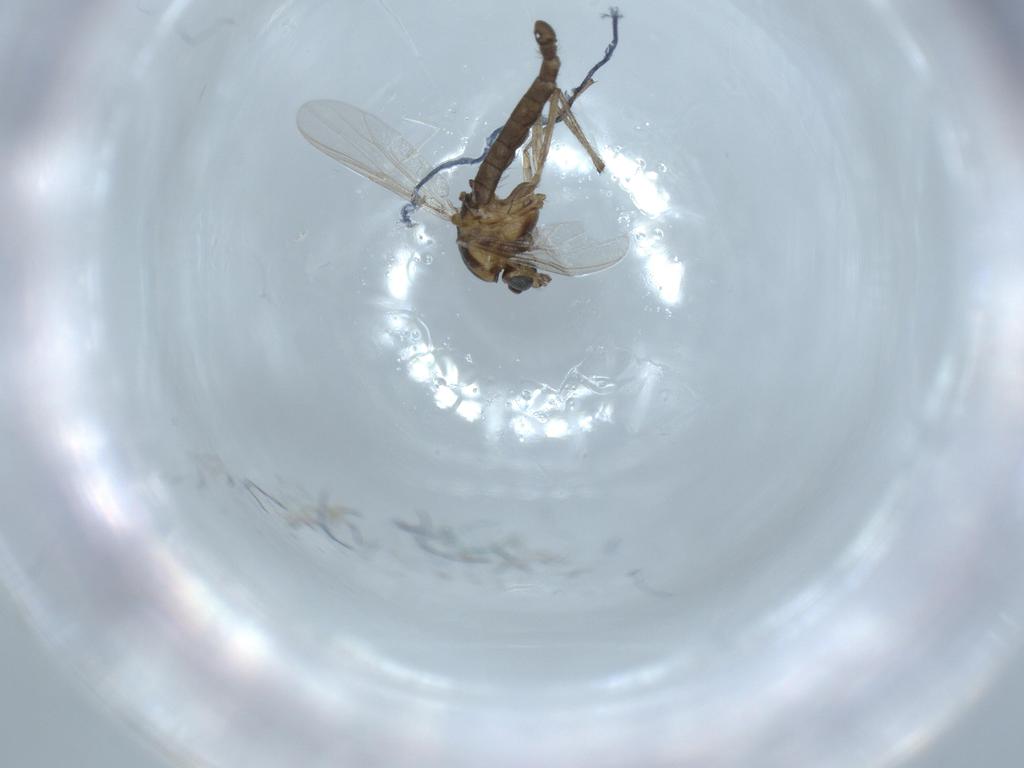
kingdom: Animalia
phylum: Arthropoda
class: Insecta
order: Diptera
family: Chironomidae
